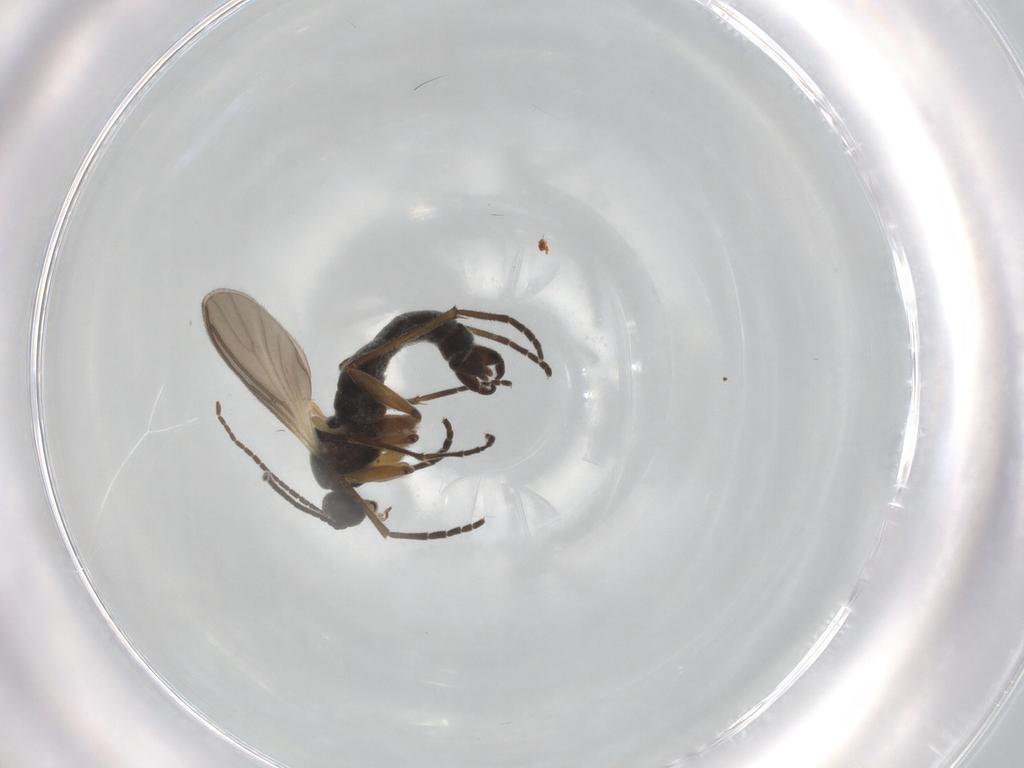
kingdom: Animalia
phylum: Arthropoda
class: Insecta
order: Diptera
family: Sciaridae
